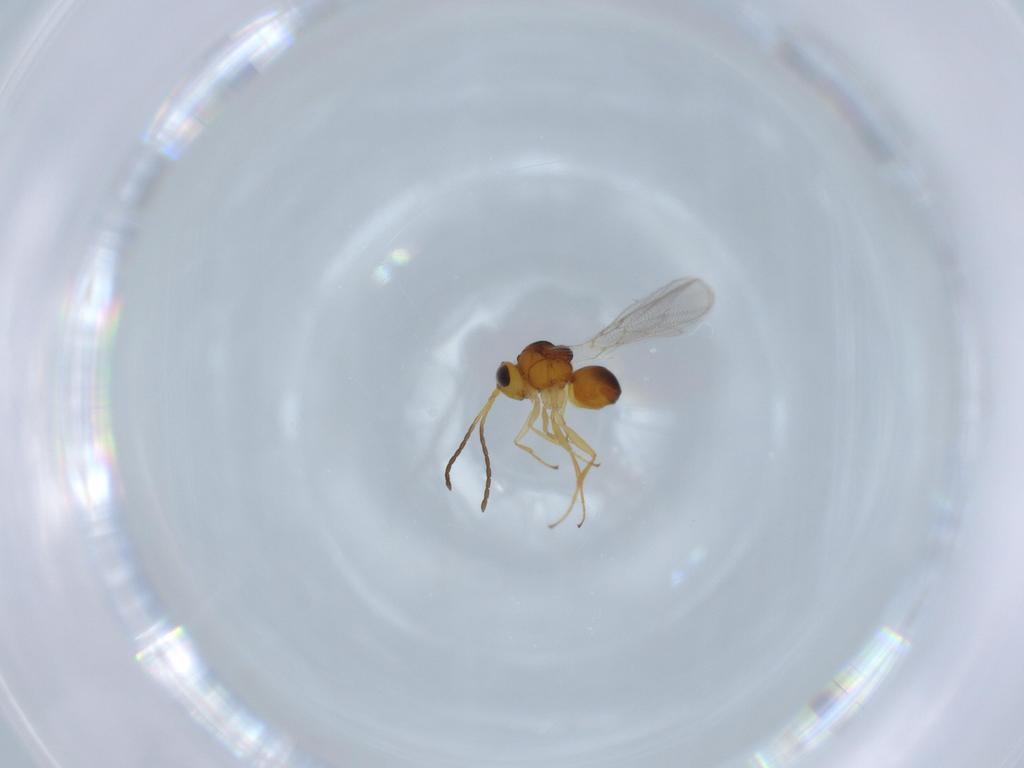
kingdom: Animalia
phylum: Arthropoda
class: Insecta
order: Hymenoptera
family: Figitidae
